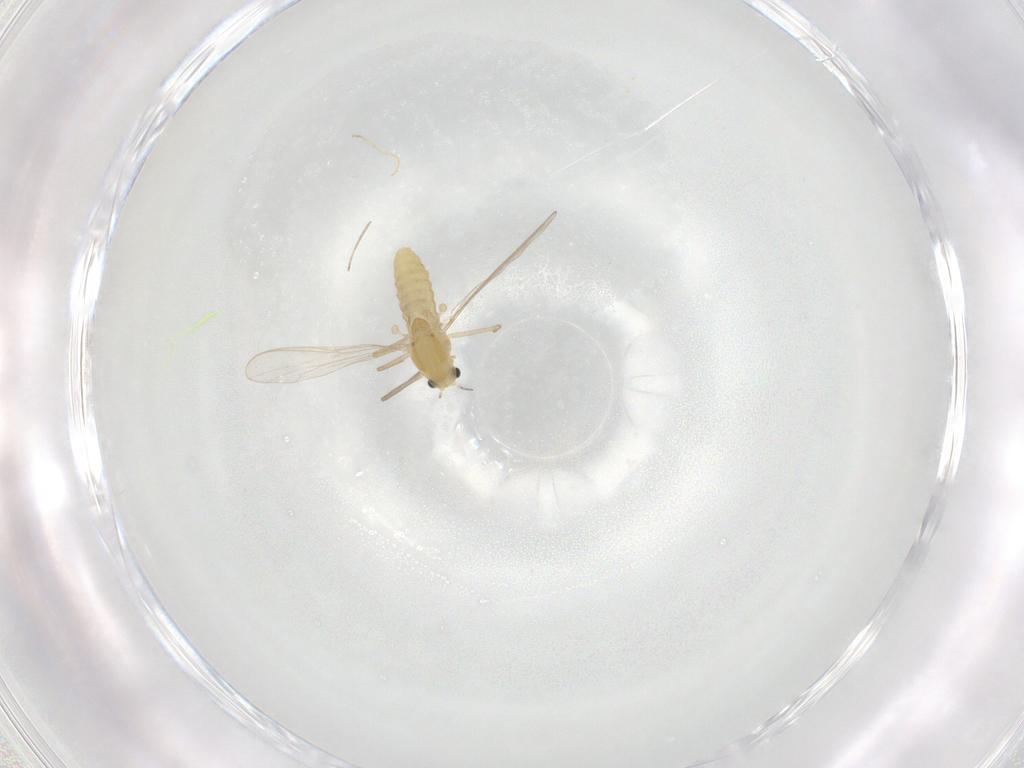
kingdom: Animalia
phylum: Arthropoda
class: Insecta
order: Diptera
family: Chironomidae
